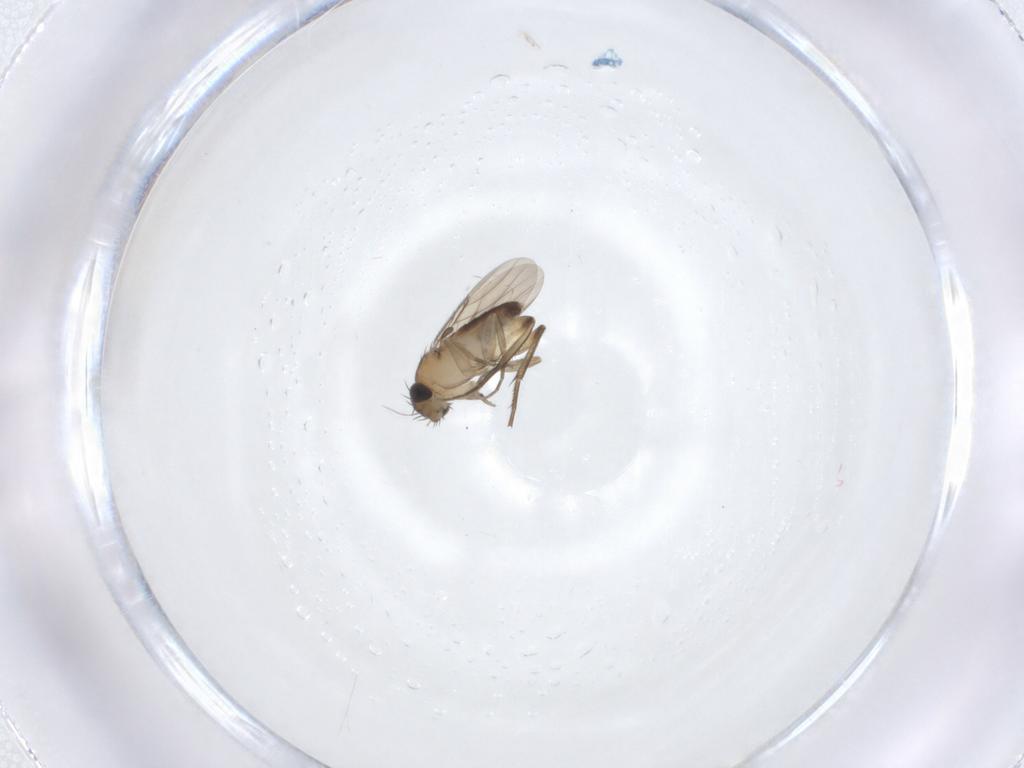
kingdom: Animalia
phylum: Arthropoda
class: Insecta
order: Diptera
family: Phoridae
